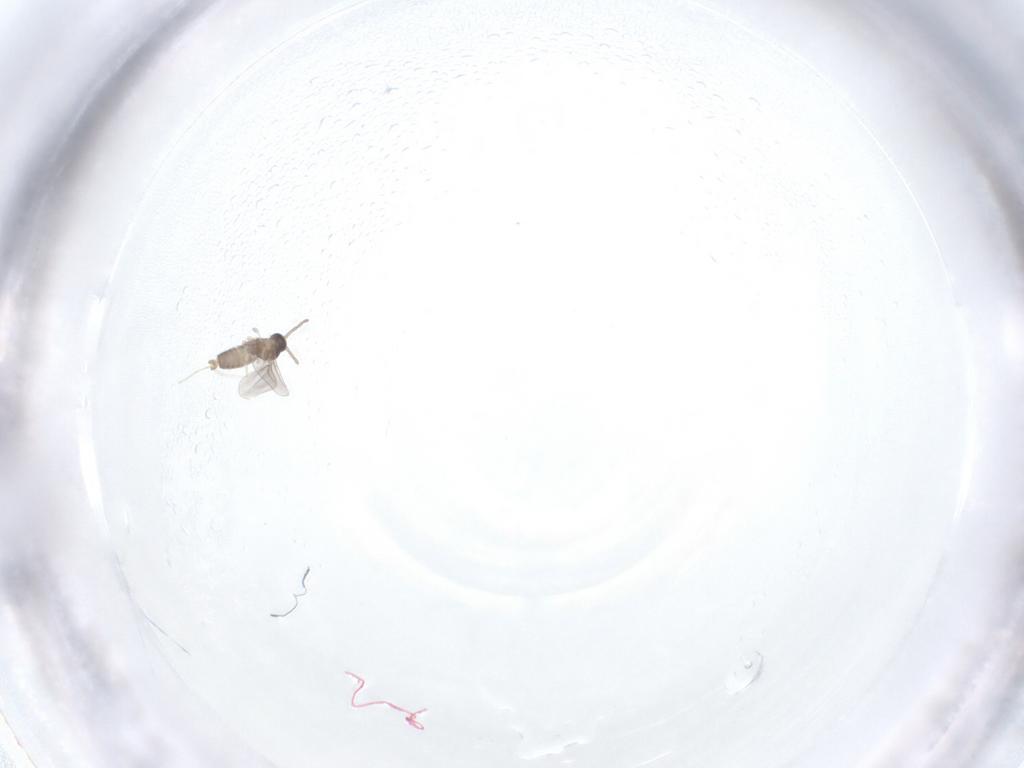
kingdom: Animalia
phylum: Arthropoda
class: Insecta
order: Diptera
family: Cecidomyiidae
